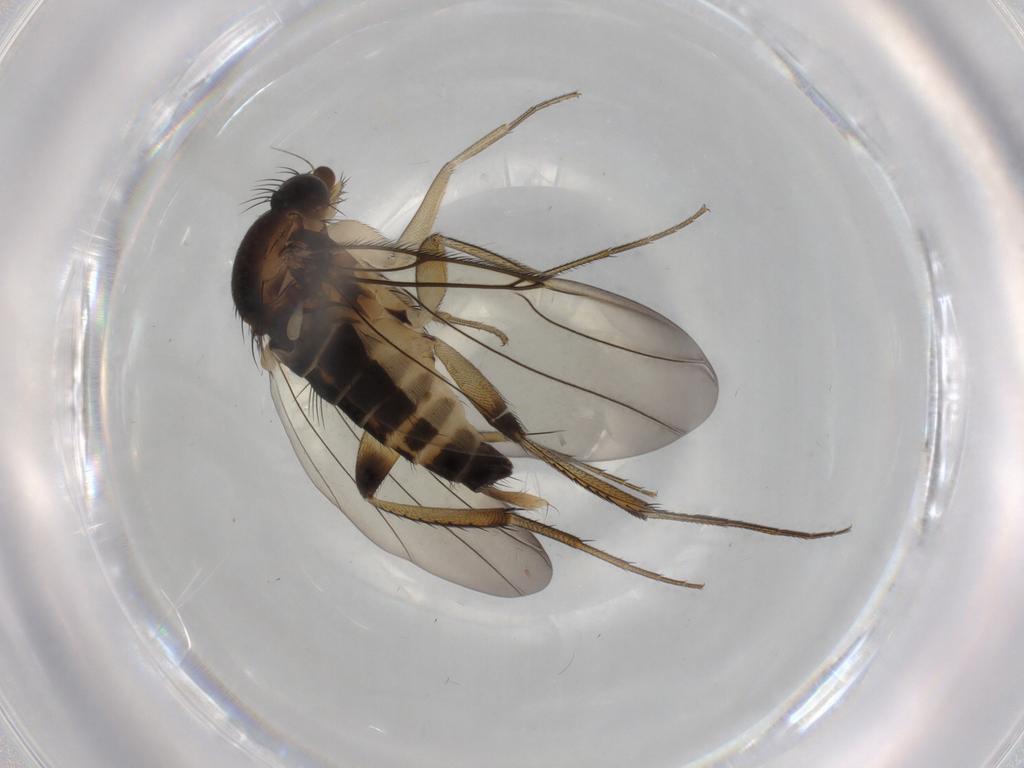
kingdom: Animalia
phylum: Arthropoda
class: Insecta
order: Diptera
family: Phoridae
